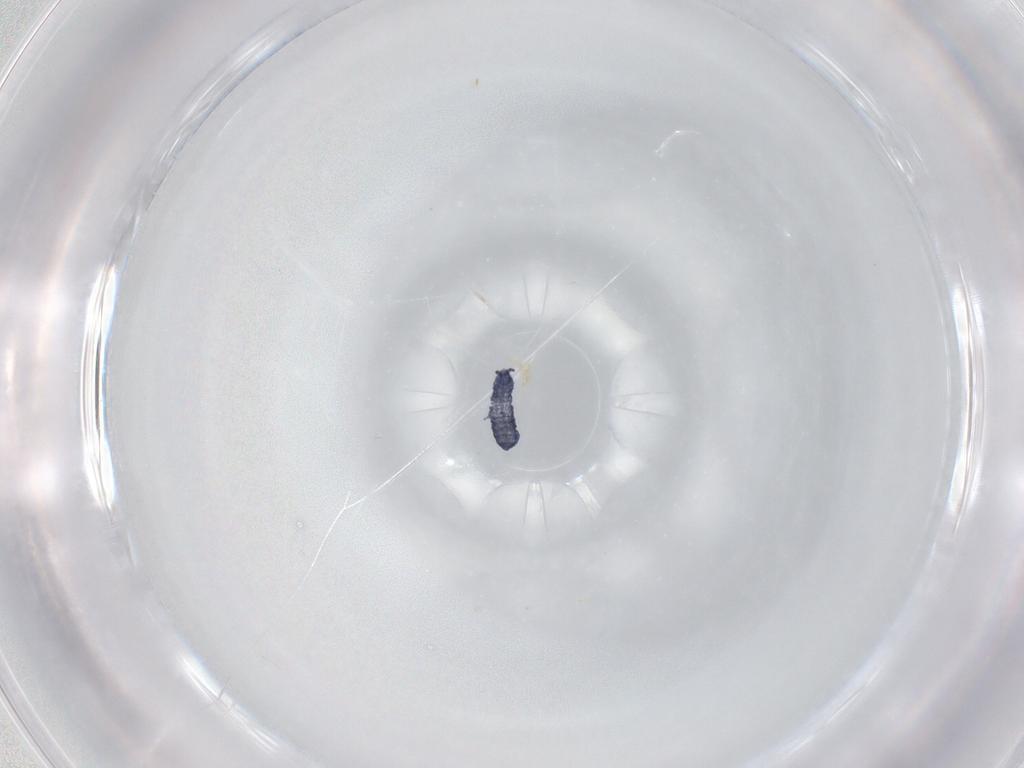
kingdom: Animalia
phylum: Arthropoda
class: Collembola
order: Poduromorpha
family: Hypogastruridae
